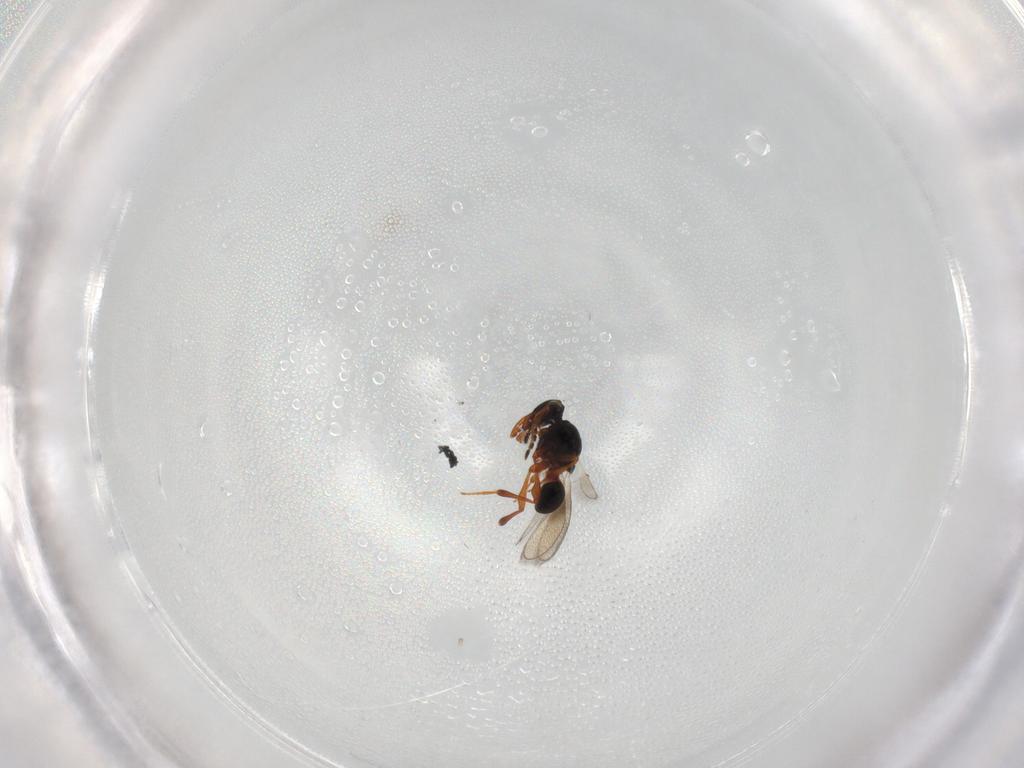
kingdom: Animalia
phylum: Arthropoda
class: Insecta
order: Hymenoptera
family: Platygastridae
